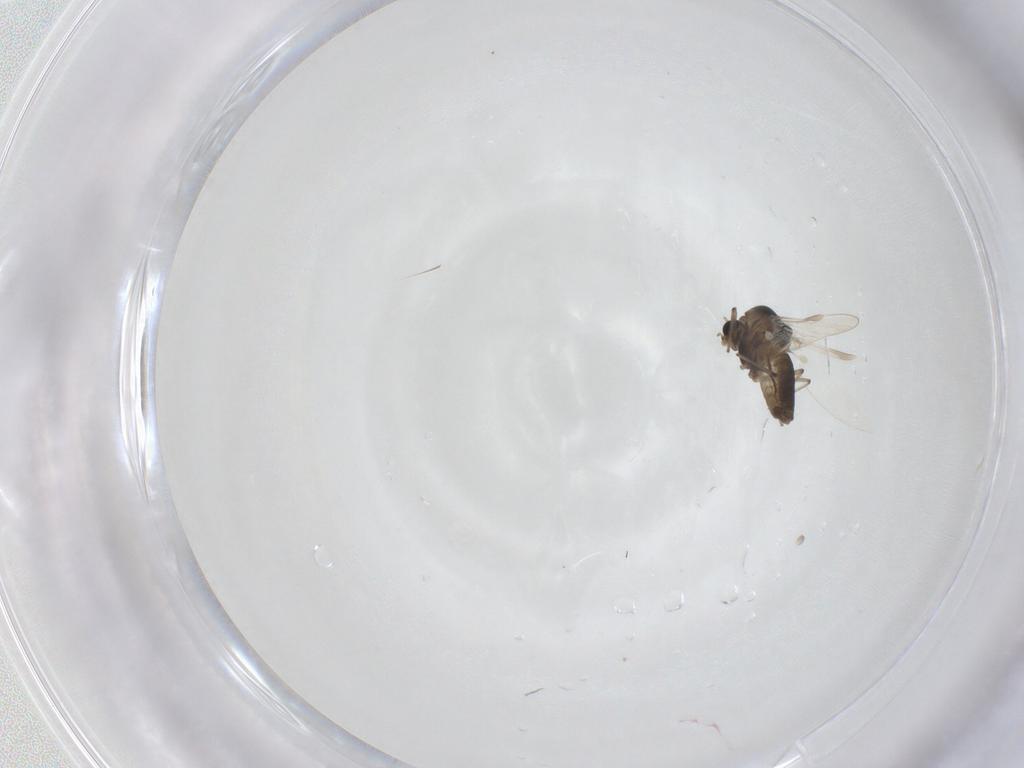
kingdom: Animalia
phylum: Arthropoda
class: Insecta
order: Diptera
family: Chironomidae
